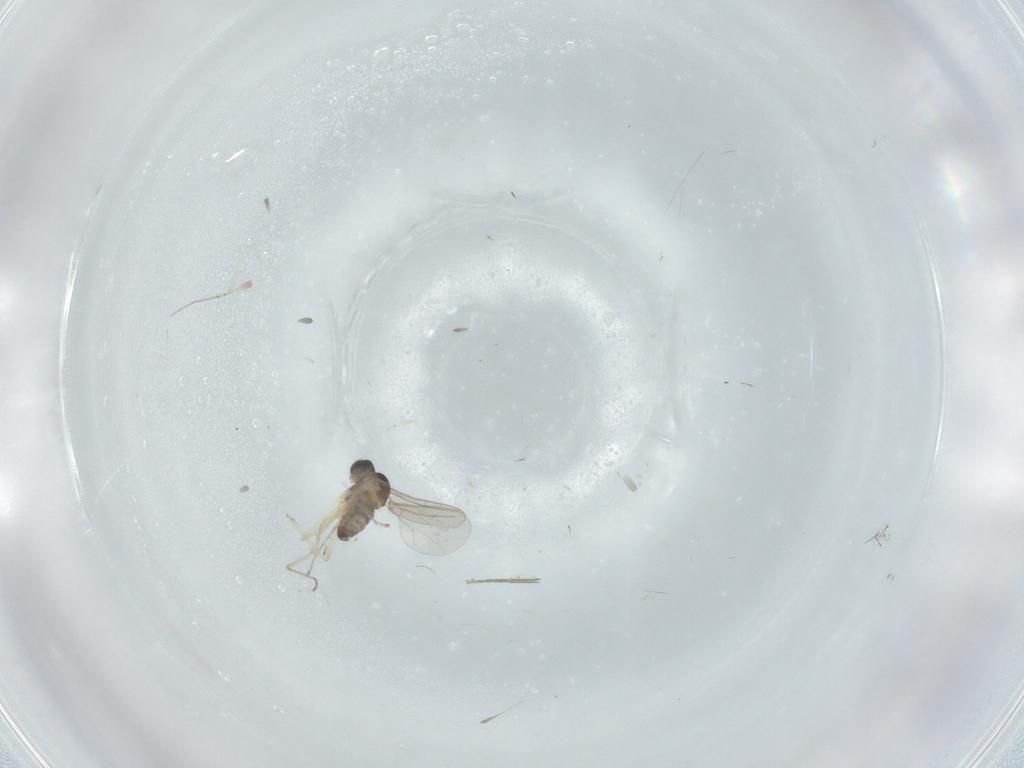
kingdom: Animalia
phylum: Arthropoda
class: Insecta
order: Diptera
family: Cecidomyiidae
